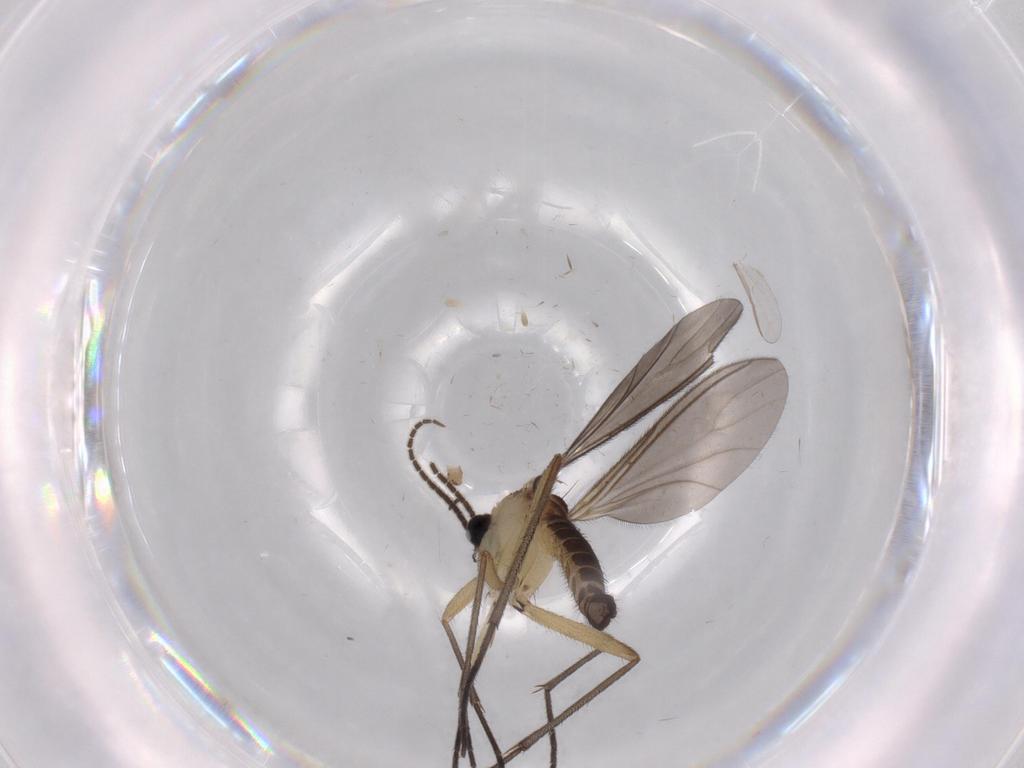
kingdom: Animalia
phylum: Arthropoda
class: Insecta
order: Diptera
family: Sciaridae
